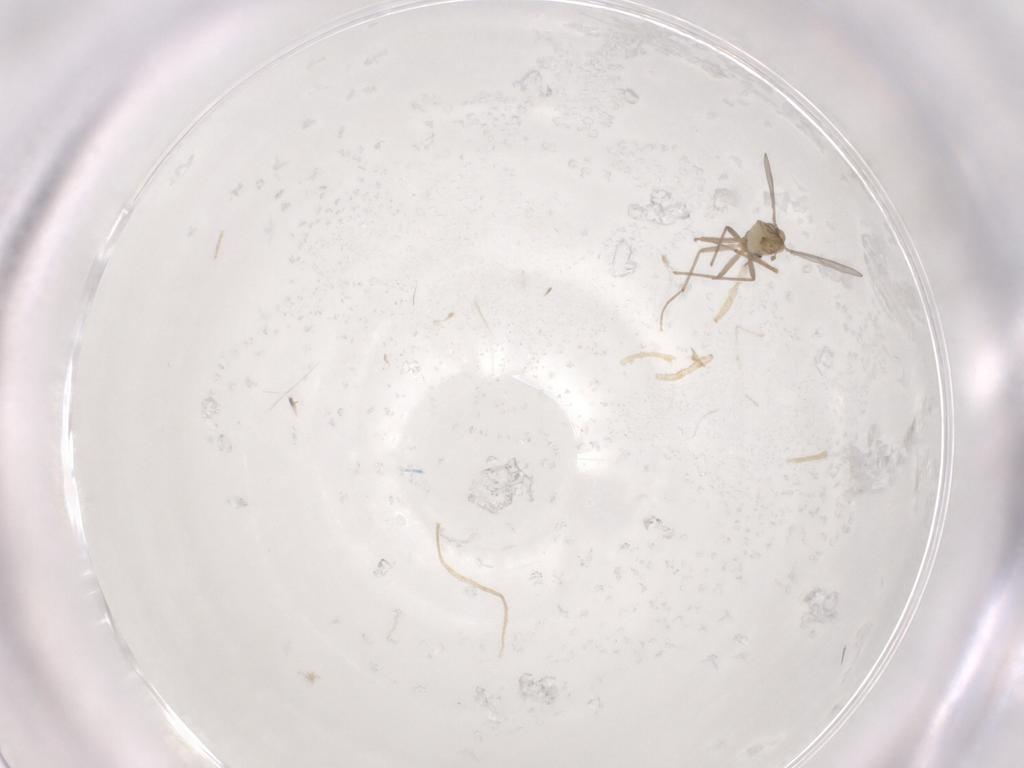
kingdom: Animalia
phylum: Arthropoda
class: Insecta
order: Diptera
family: Chironomidae
